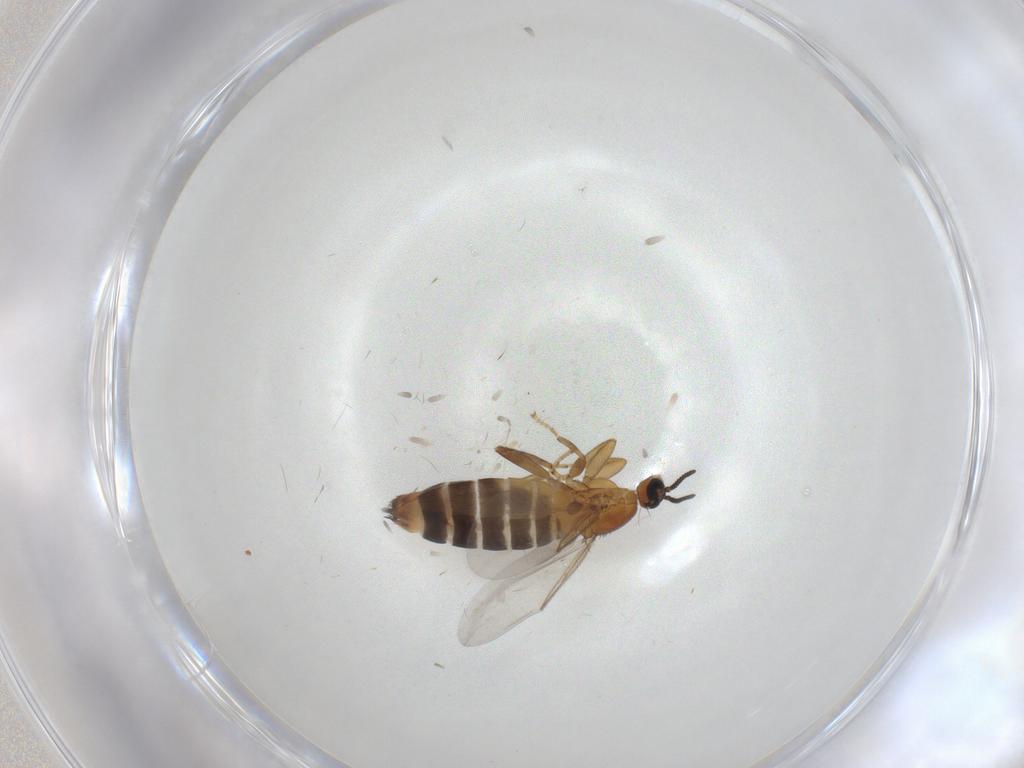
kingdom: Animalia
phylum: Arthropoda
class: Insecta
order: Diptera
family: Scatopsidae
